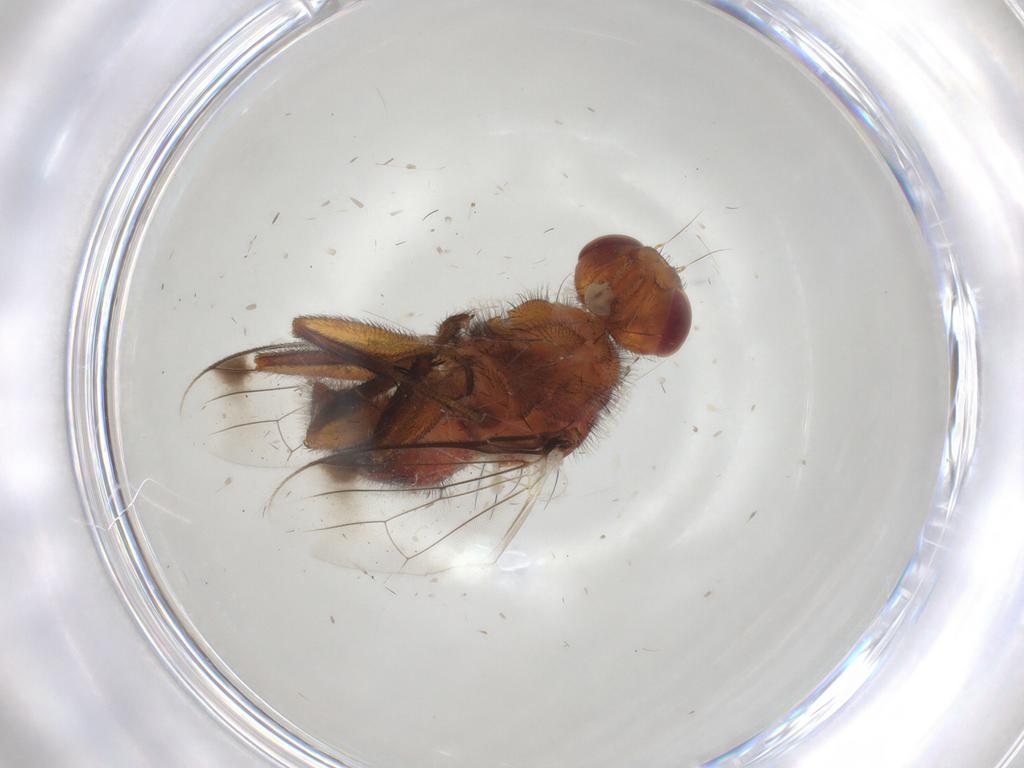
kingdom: Animalia
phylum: Arthropoda
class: Insecta
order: Diptera
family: Richardiidae
